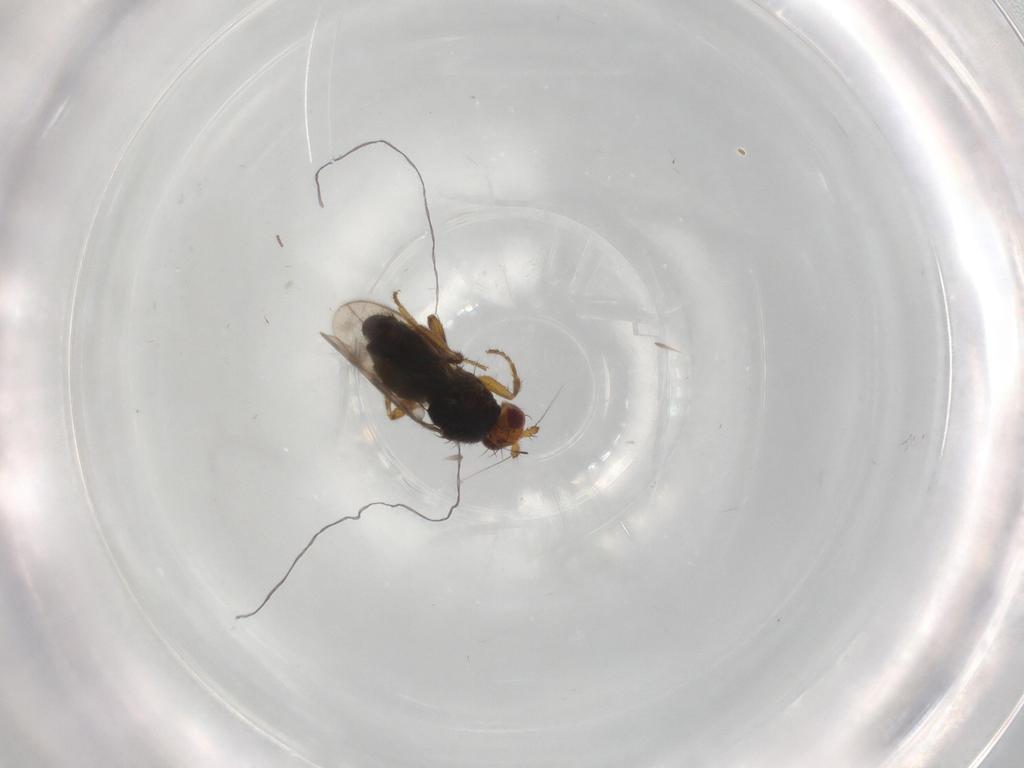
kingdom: Animalia
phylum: Arthropoda
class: Insecta
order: Diptera
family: Sphaeroceridae
